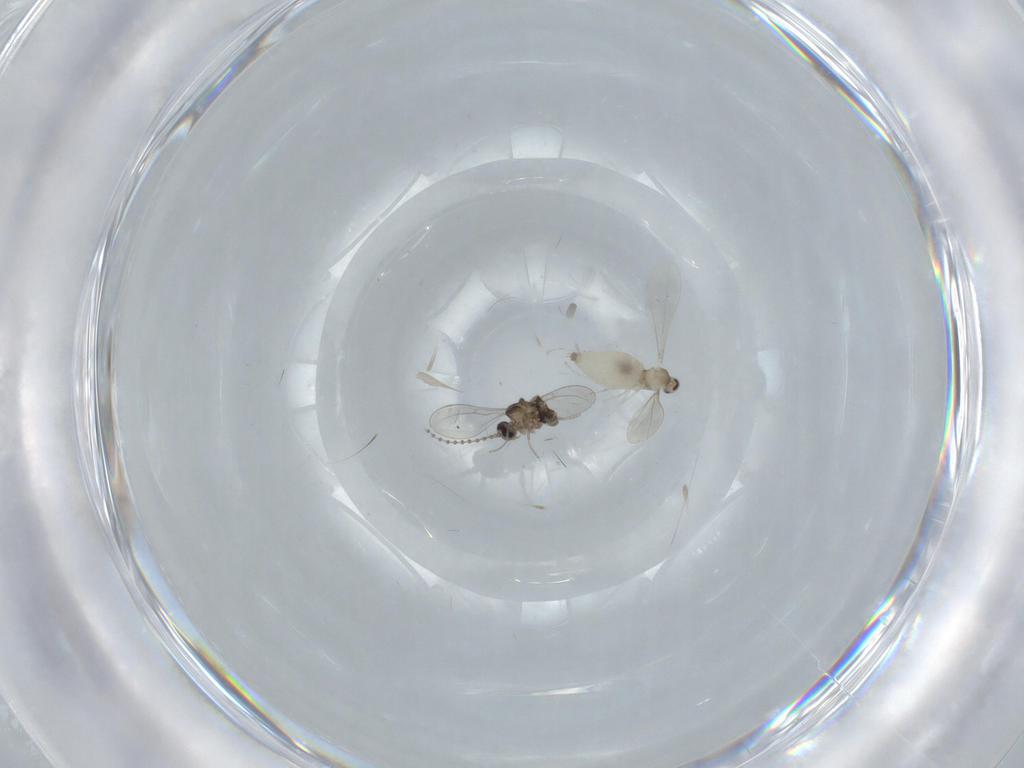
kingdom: Animalia
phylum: Arthropoda
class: Insecta
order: Diptera
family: Cecidomyiidae
